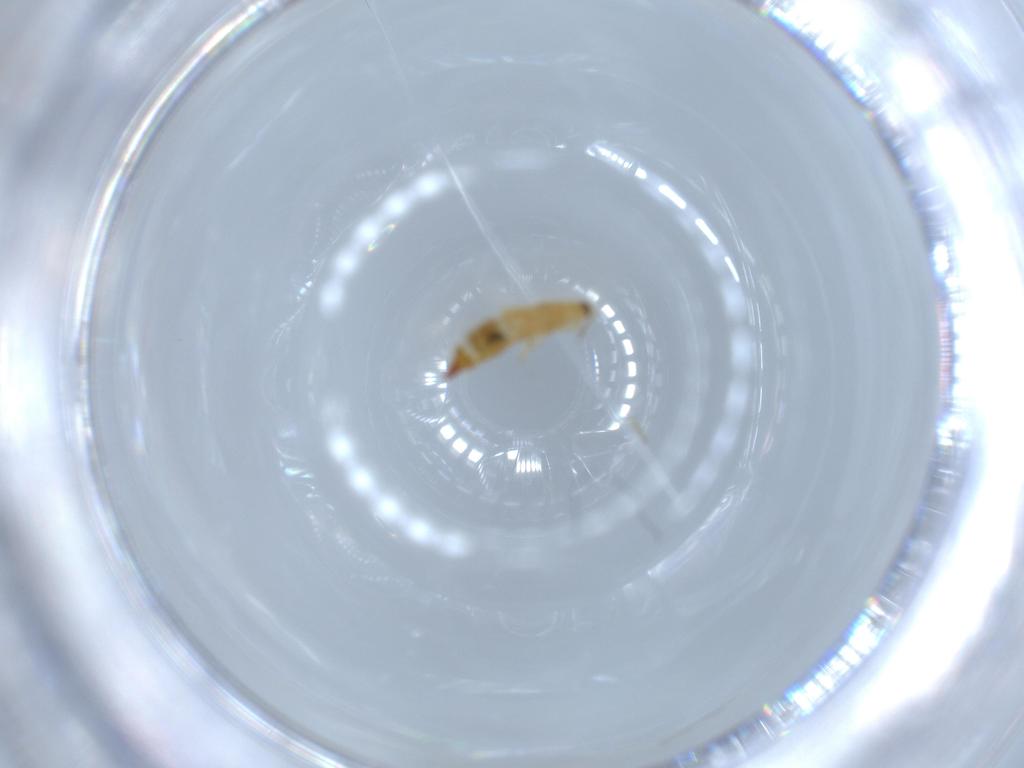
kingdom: Animalia
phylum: Arthropoda
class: Insecta
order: Thysanoptera
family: Phlaeothripidae
